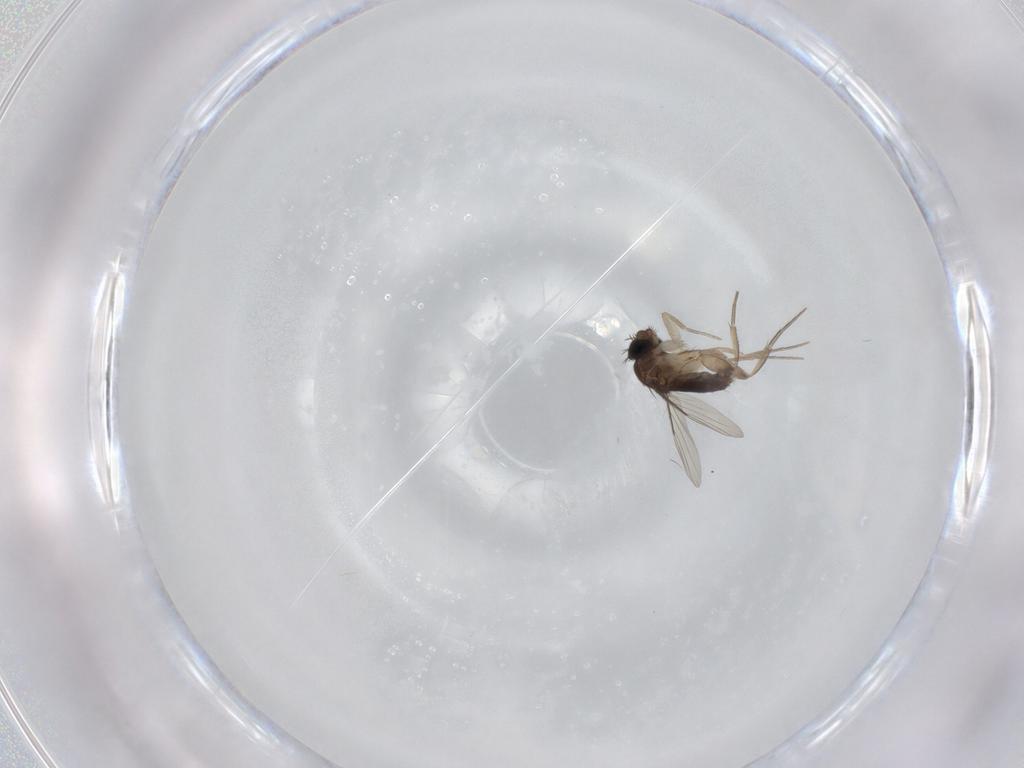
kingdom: Animalia
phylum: Arthropoda
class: Insecta
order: Diptera
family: Phoridae
